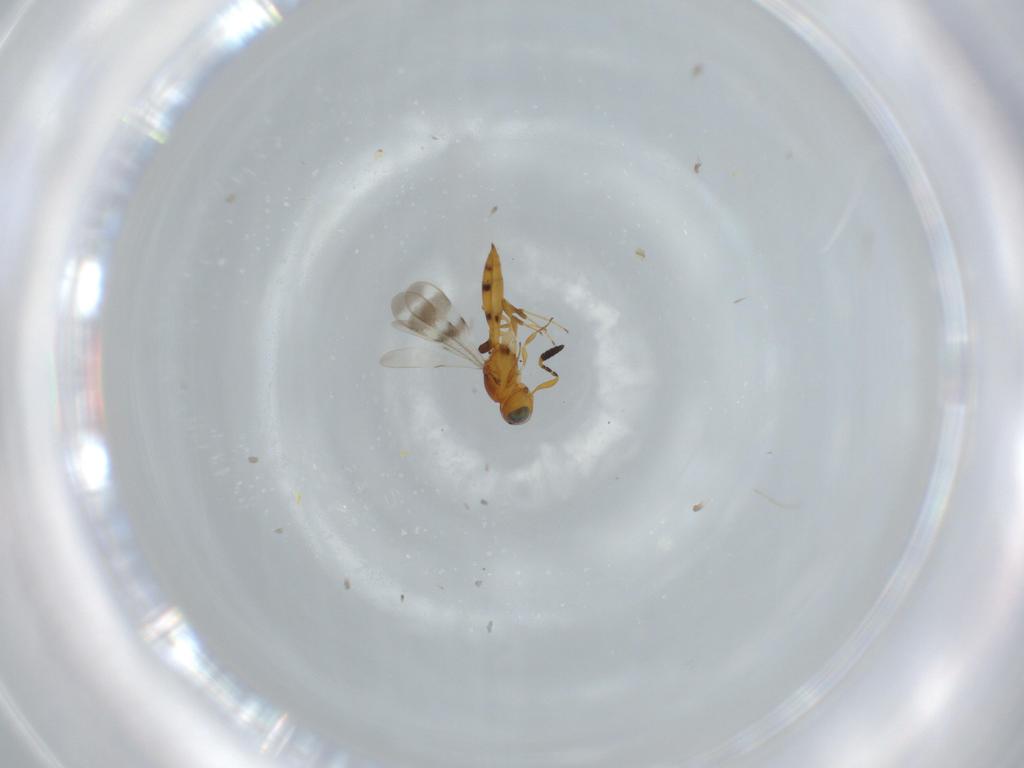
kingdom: Animalia
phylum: Arthropoda
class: Insecta
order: Hymenoptera
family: Scelionidae
